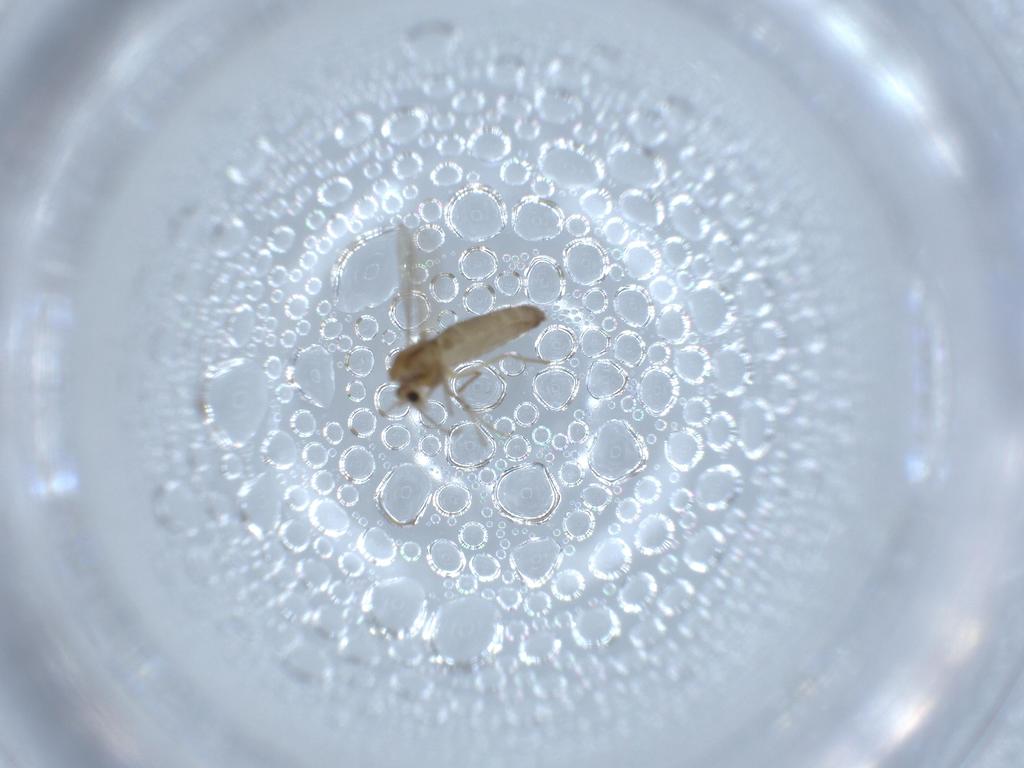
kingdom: Animalia
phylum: Arthropoda
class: Insecta
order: Diptera
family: Chironomidae
